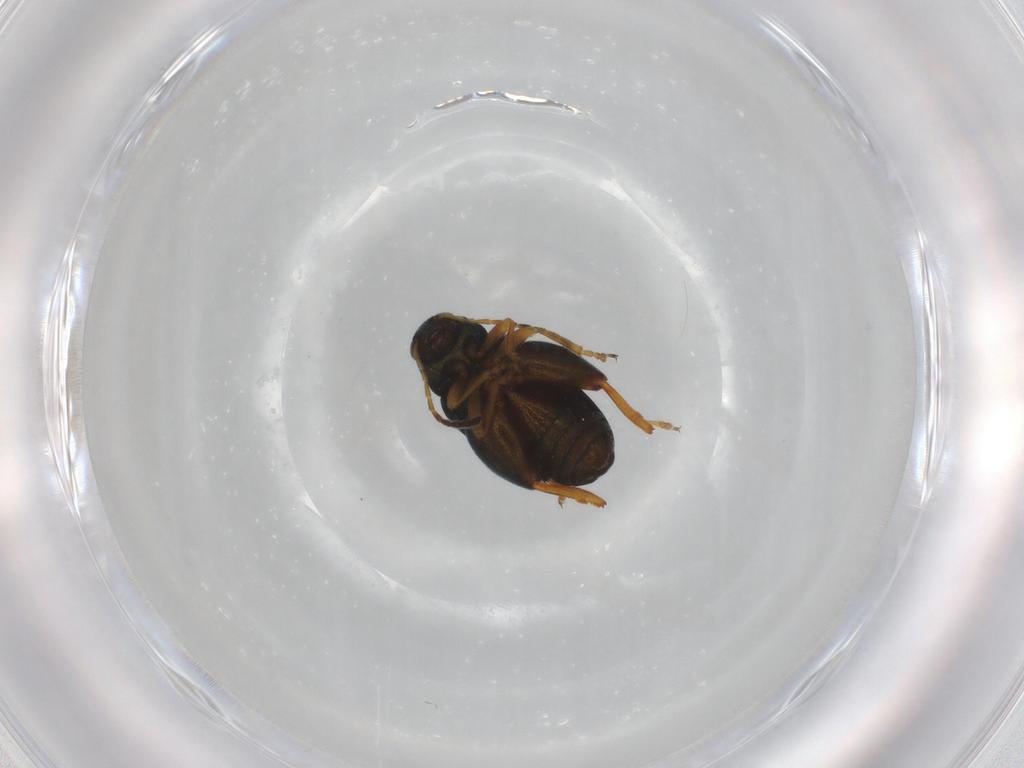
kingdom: Animalia
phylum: Arthropoda
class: Insecta
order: Coleoptera
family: Chrysomelidae
